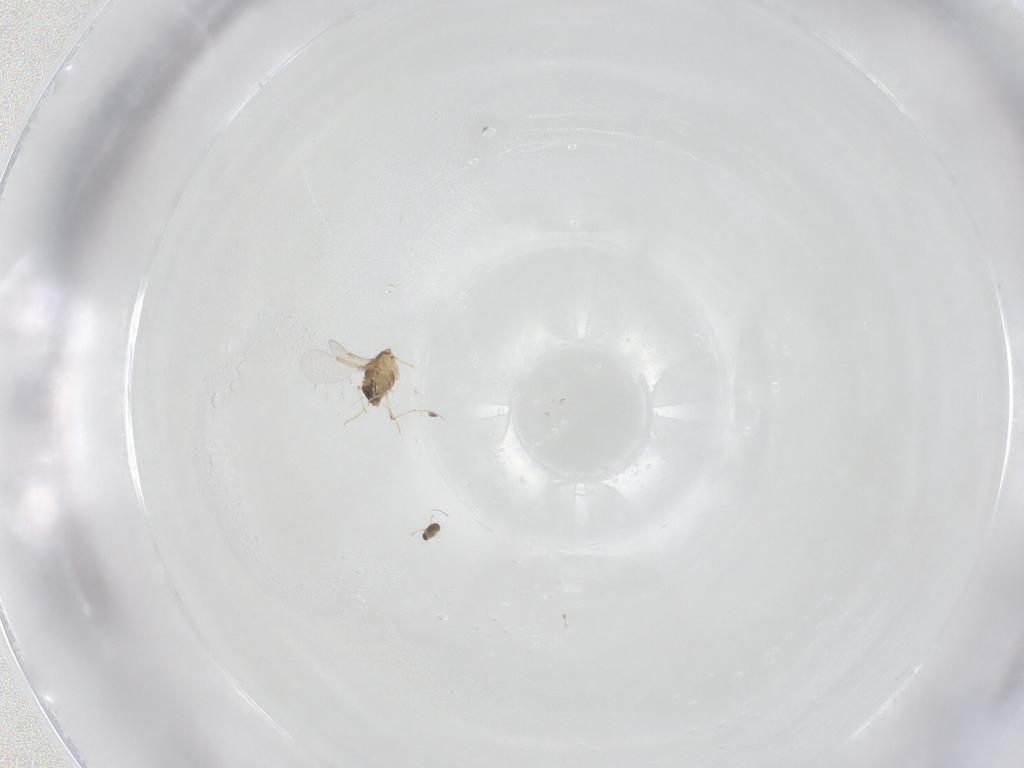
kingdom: Animalia
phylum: Arthropoda
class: Insecta
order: Diptera
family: Chironomidae
